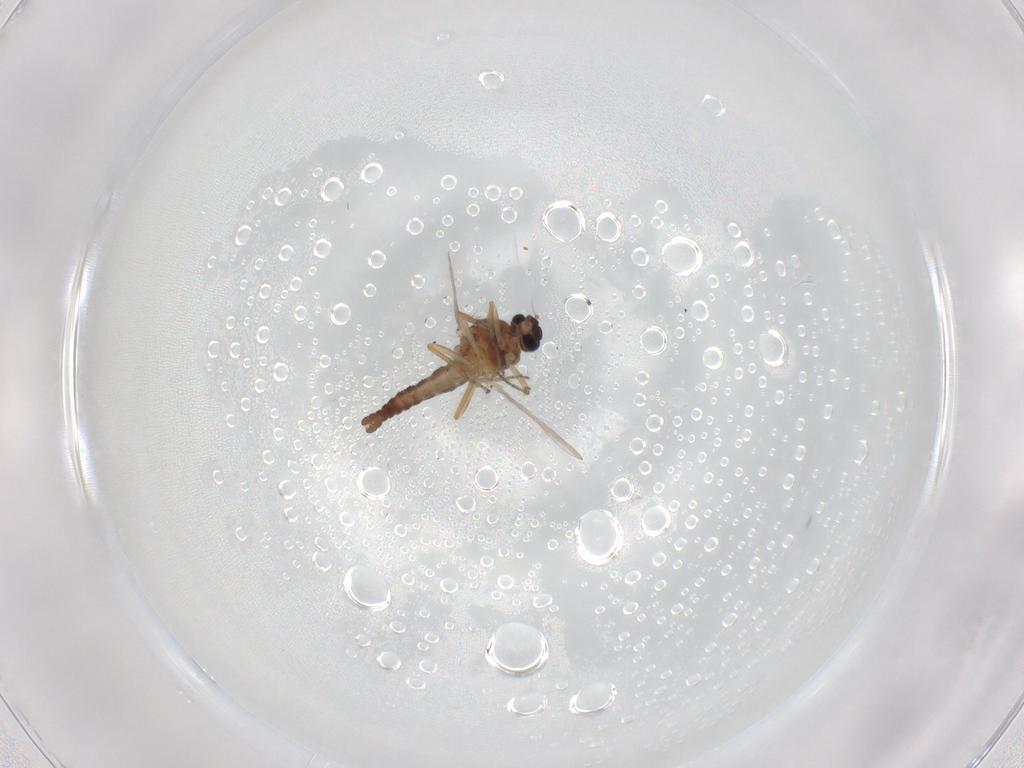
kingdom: Animalia
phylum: Arthropoda
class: Insecta
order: Diptera
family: Ceratopogonidae
